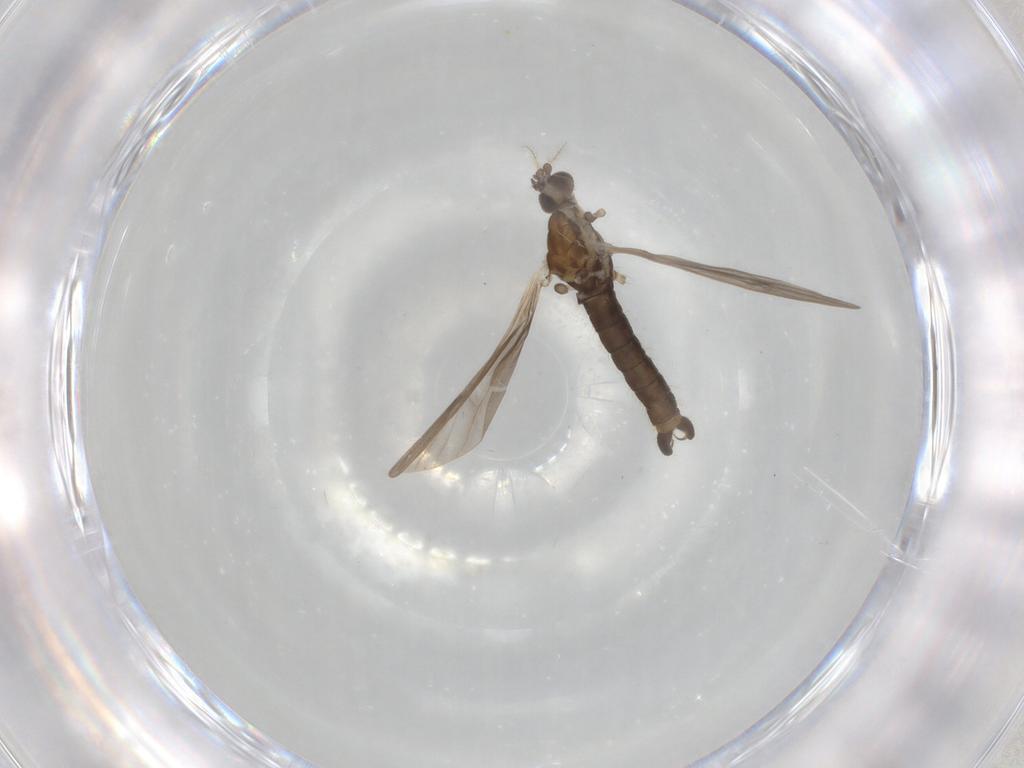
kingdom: Animalia
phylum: Arthropoda
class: Insecta
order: Diptera
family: Limoniidae
